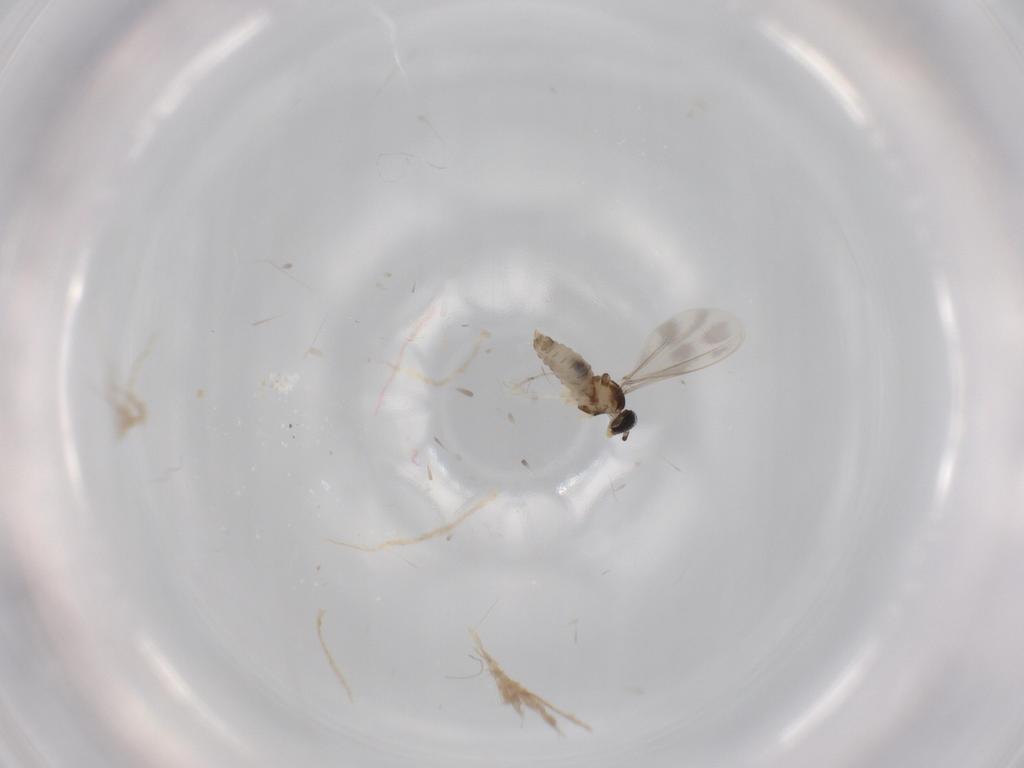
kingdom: Animalia
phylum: Arthropoda
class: Insecta
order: Diptera
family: Cecidomyiidae
